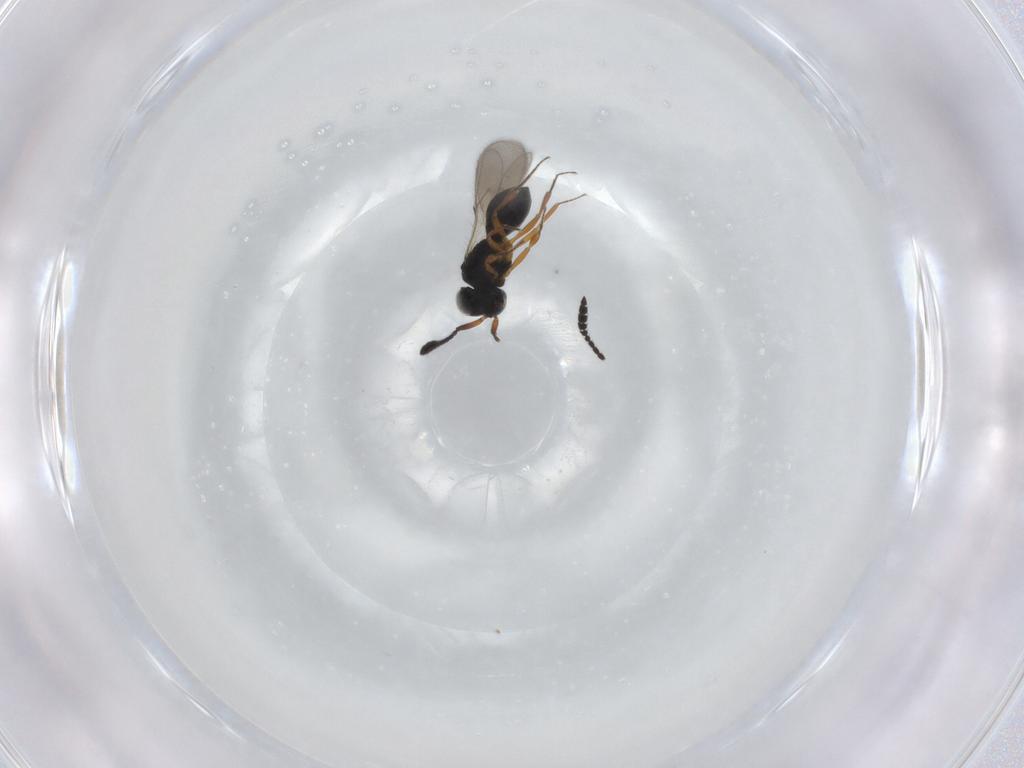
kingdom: Animalia
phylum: Arthropoda
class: Insecta
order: Hymenoptera
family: Scelionidae
